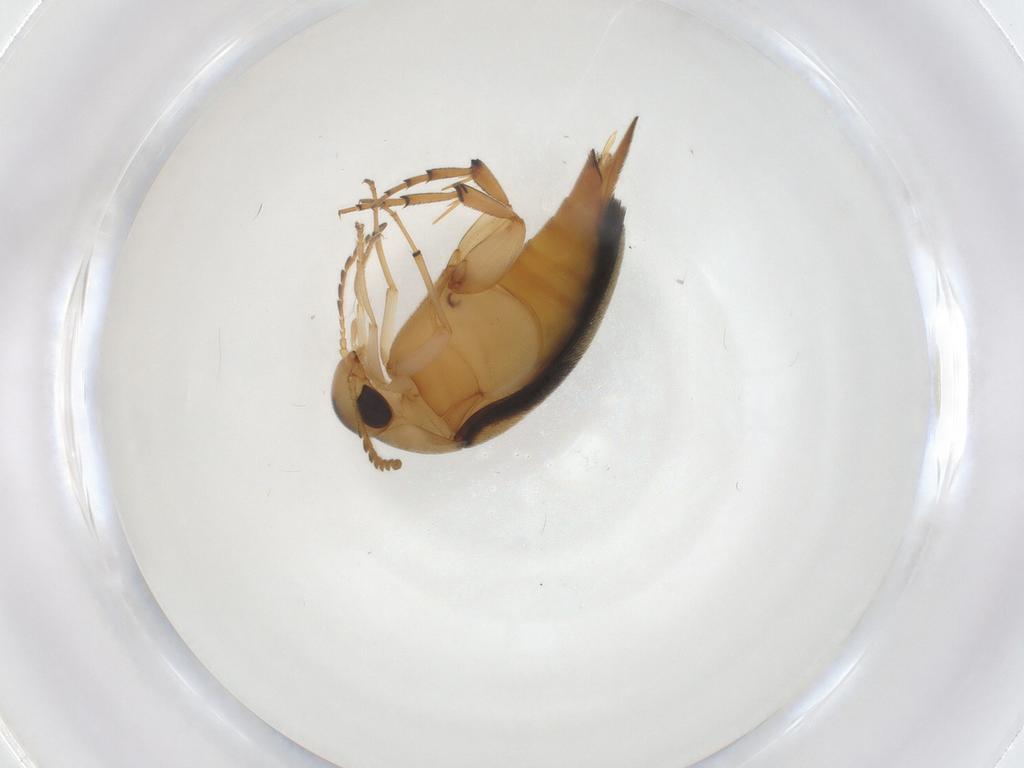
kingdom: Animalia
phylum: Arthropoda
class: Insecta
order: Coleoptera
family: Mordellidae
